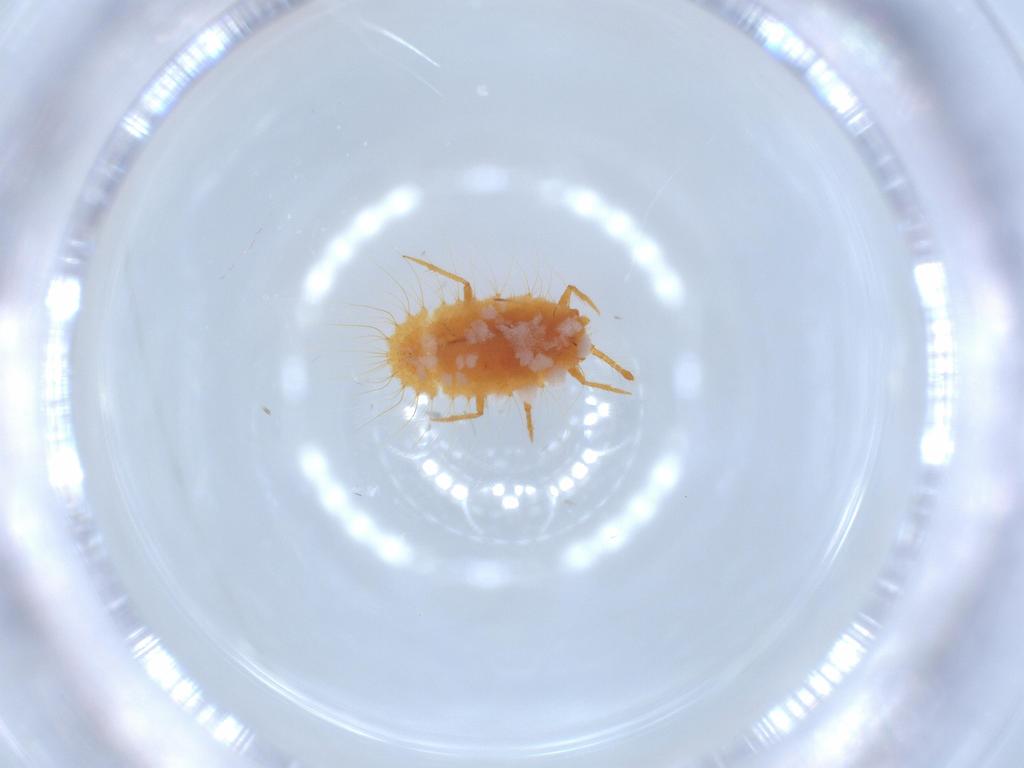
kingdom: Animalia
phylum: Arthropoda
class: Insecta
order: Hemiptera
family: Coccoidea_incertae_sedis
